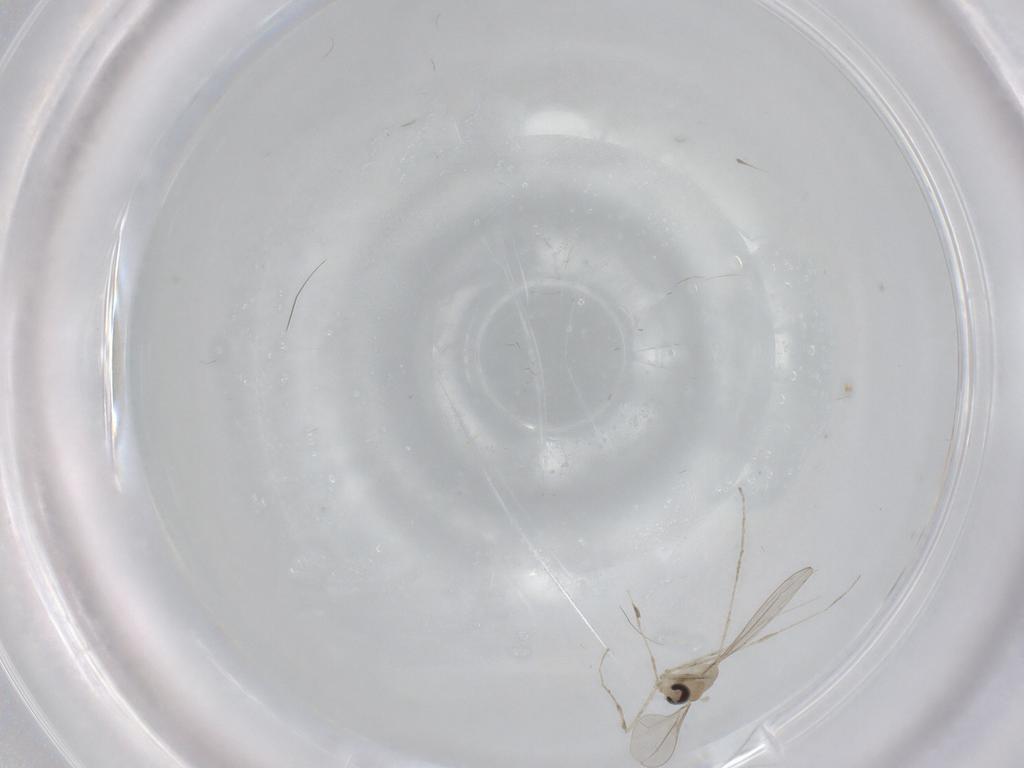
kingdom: Animalia
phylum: Arthropoda
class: Insecta
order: Diptera
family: Cecidomyiidae
